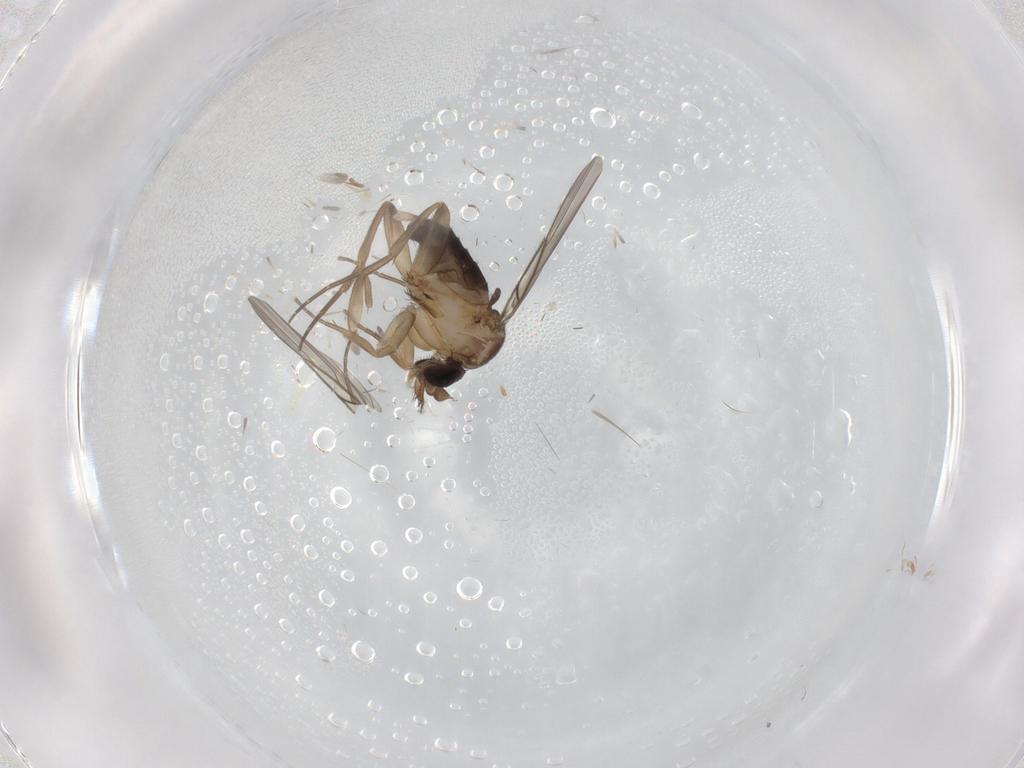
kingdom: Animalia
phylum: Arthropoda
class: Insecta
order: Diptera
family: Phoridae
